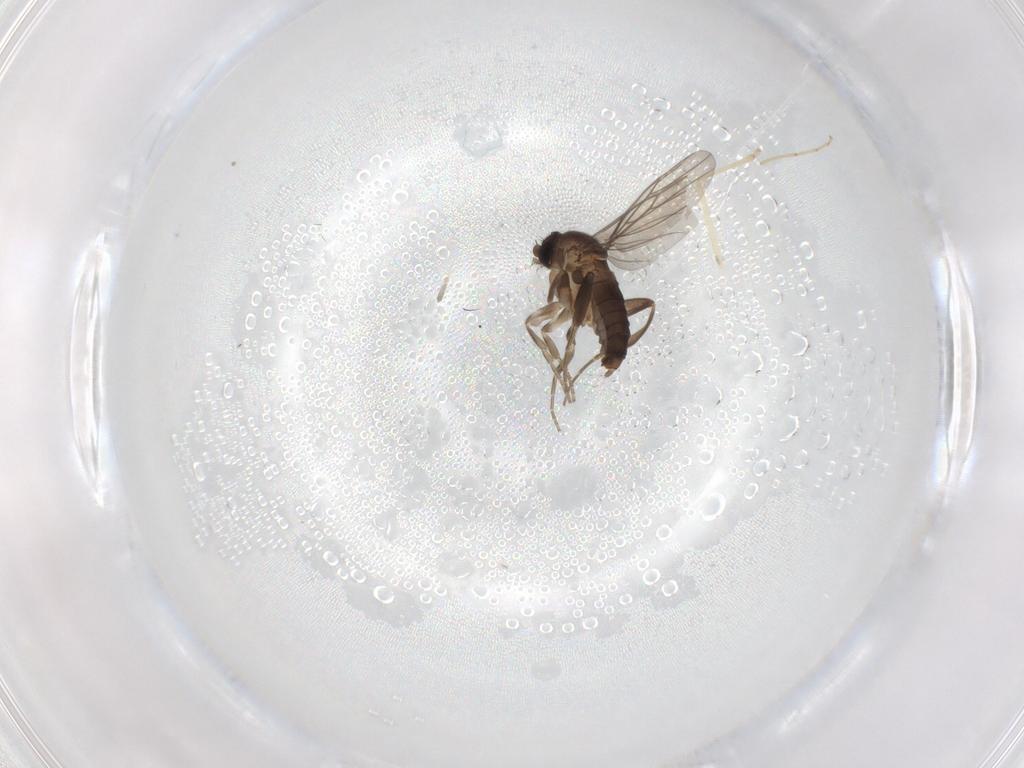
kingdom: Animalia
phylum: Arthropoda
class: Insecta
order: Diptera
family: Phoridae
